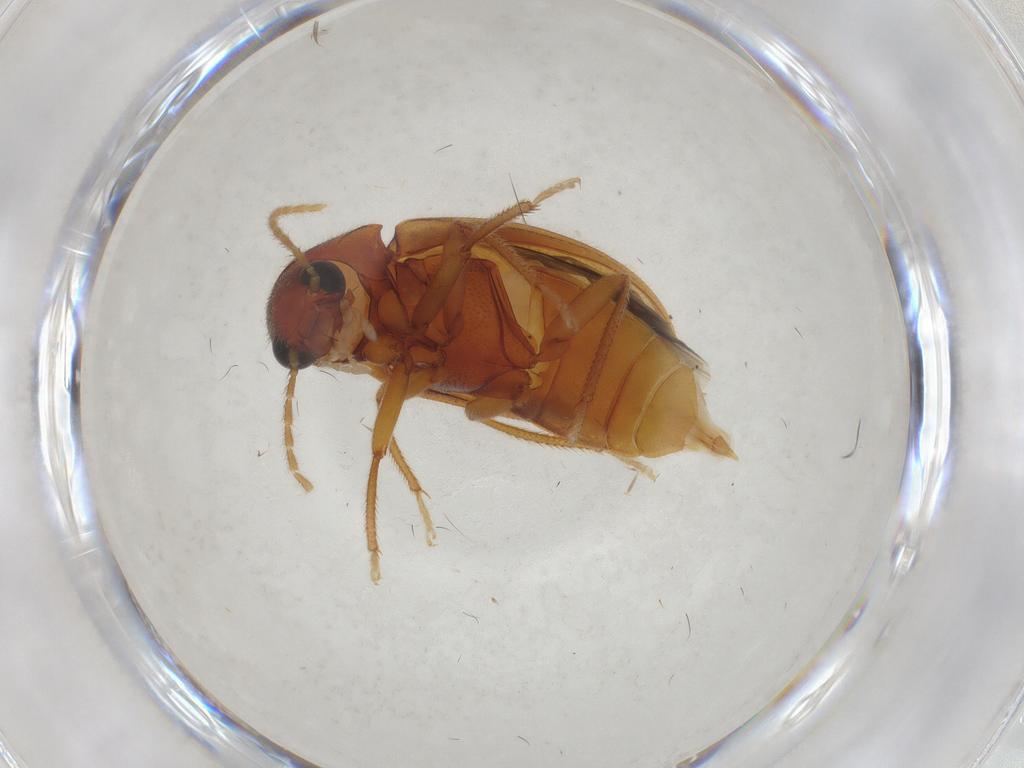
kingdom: Animalia
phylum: Arthropoda
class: Insecta
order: Coleoptera
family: Ptilodactylidae
